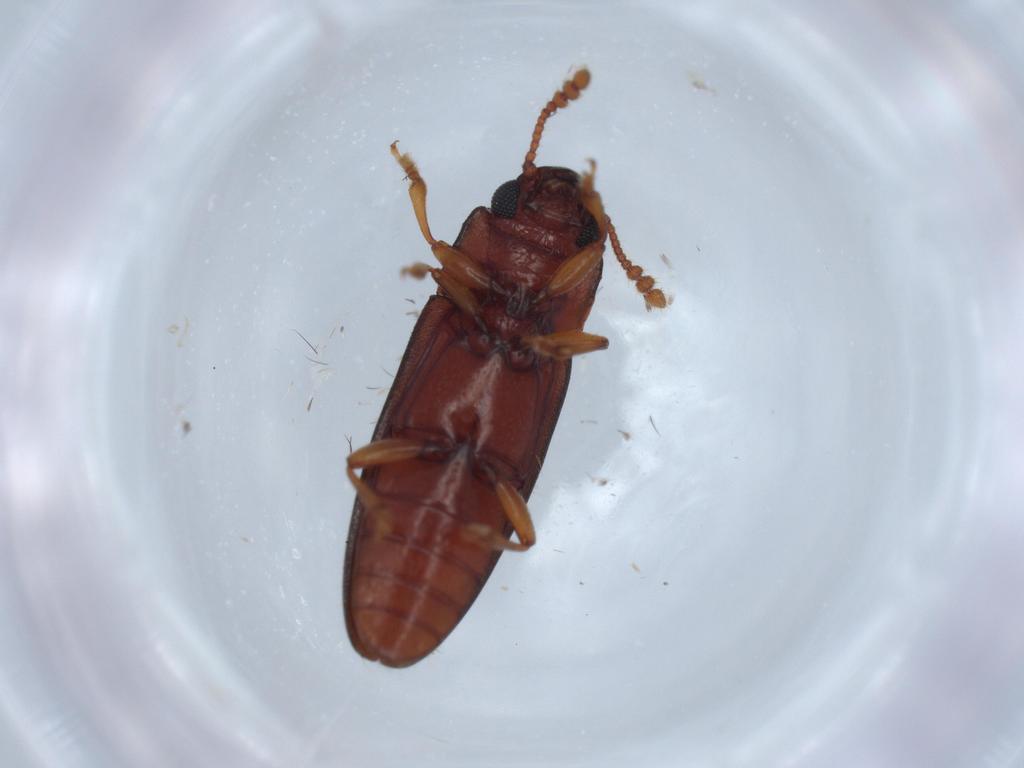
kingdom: Animalia
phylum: Arthropoda
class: Insecta
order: Coleoptera
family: Erotylidae
